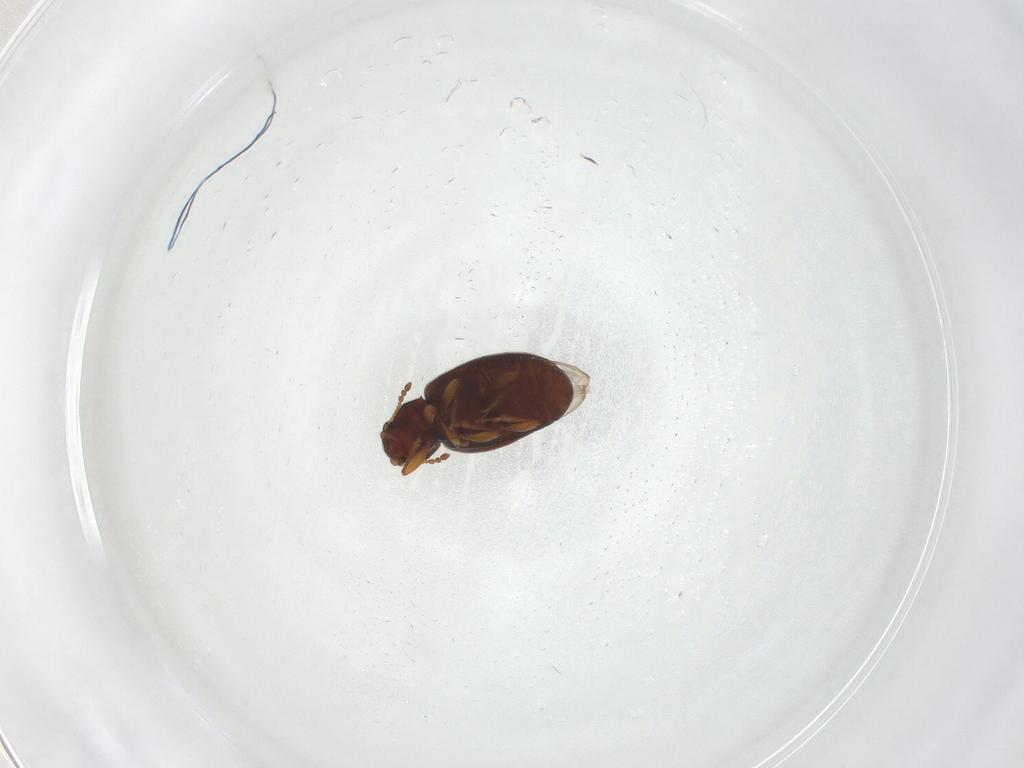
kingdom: Animalia
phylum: Arthropoda
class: Insecta
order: Coleoptera
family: Latridiidae
